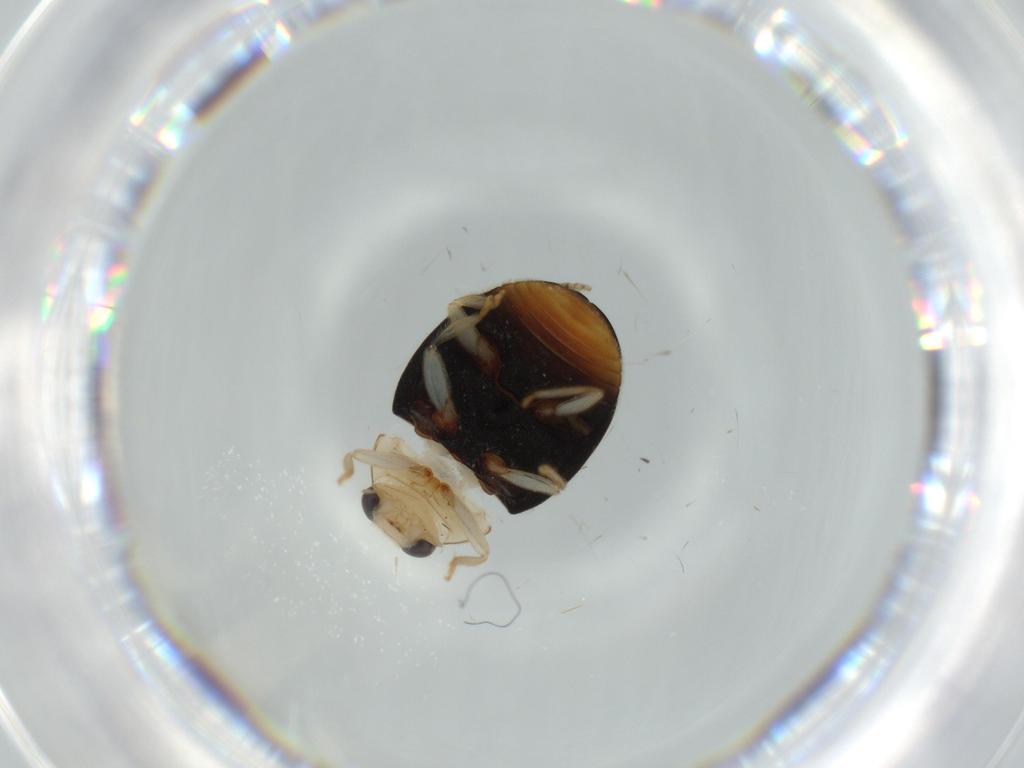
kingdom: Animalia
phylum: Arthropoda
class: Insecta
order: Coleoptera
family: Coccinellidae
